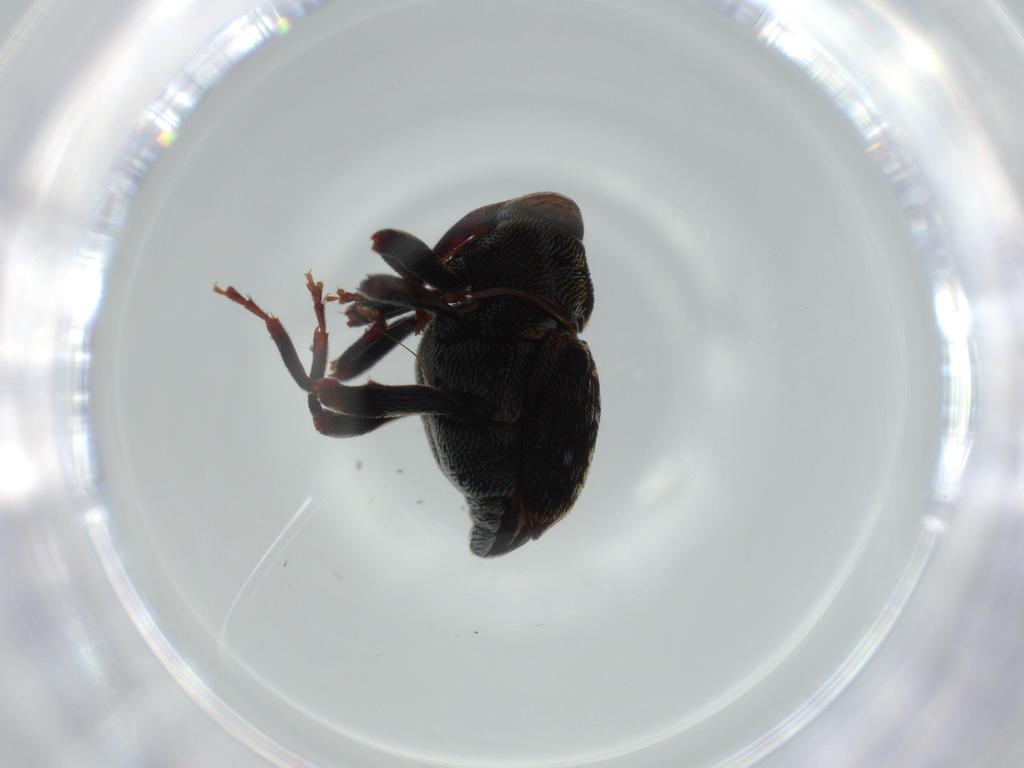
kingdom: Animalia
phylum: Arthropoda
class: Insecta
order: Coleoptera
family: Curculionidae
